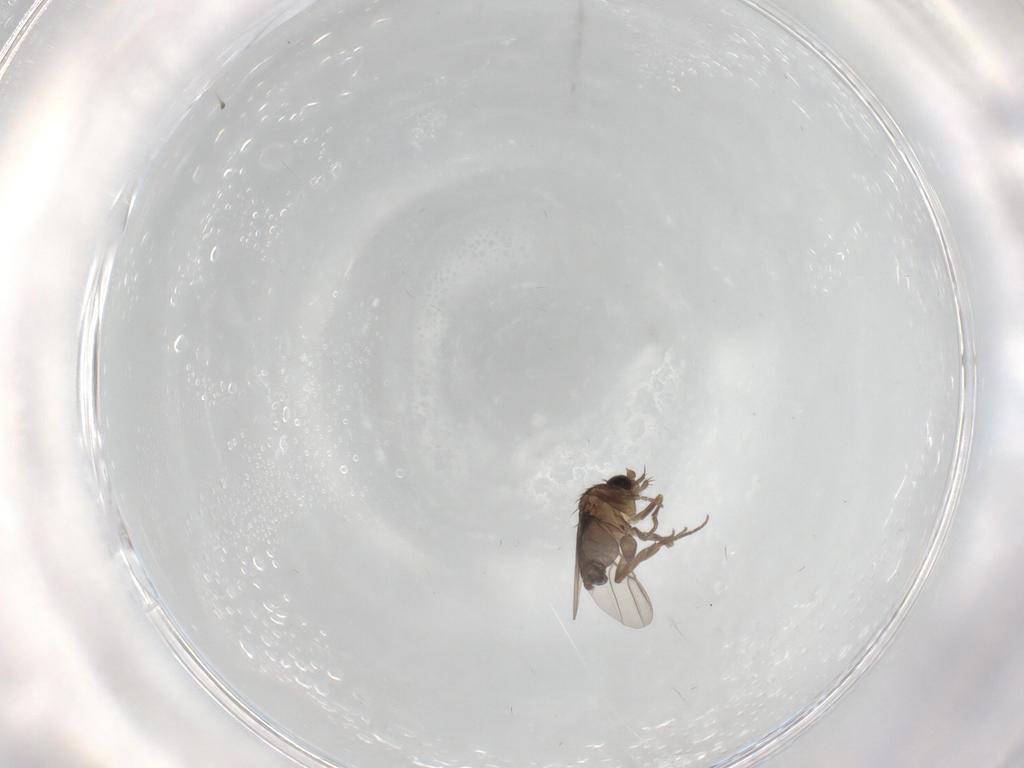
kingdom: Animalia
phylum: Arthropoda
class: Insecta
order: Diptera
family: Phoridae
